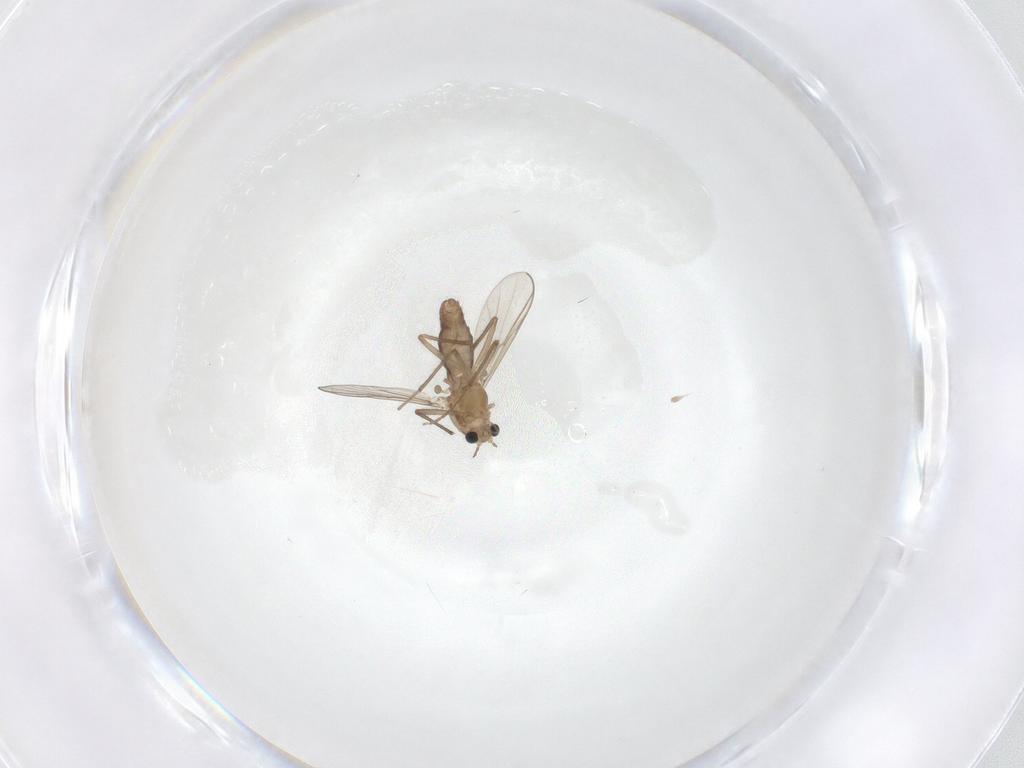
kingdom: Animalia
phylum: Arthropoda
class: Insecta
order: Diptera
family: Chironomidae
